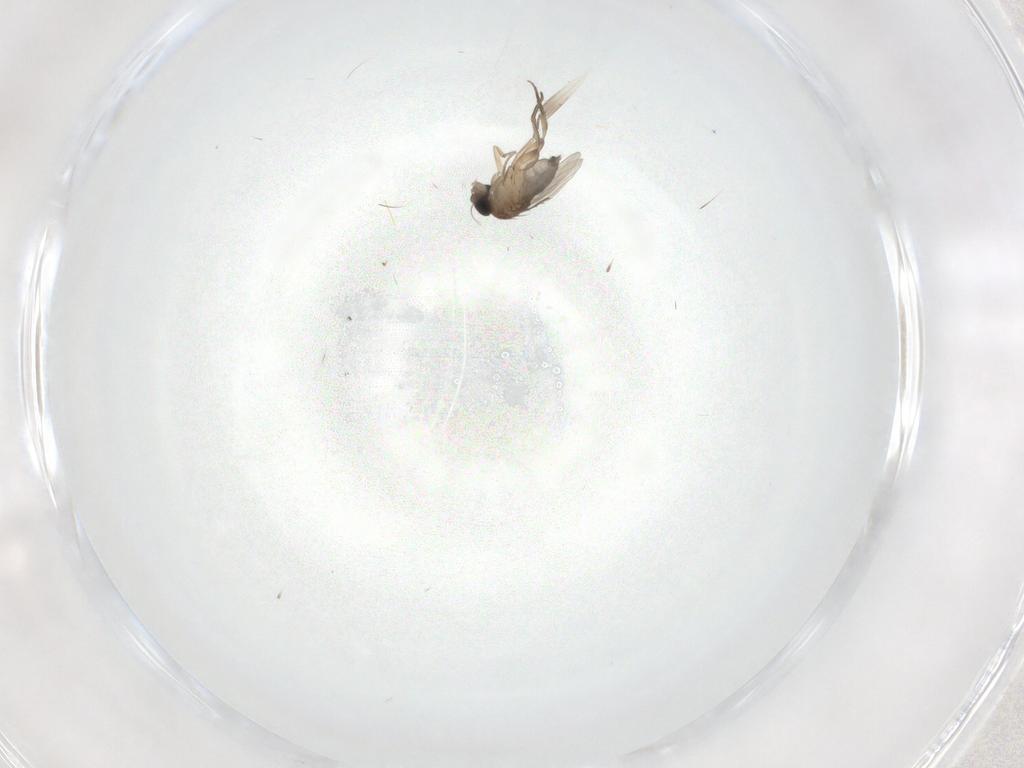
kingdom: Animalia
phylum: Arthropoda
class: Insecta
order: Diptera
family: Phoridae
